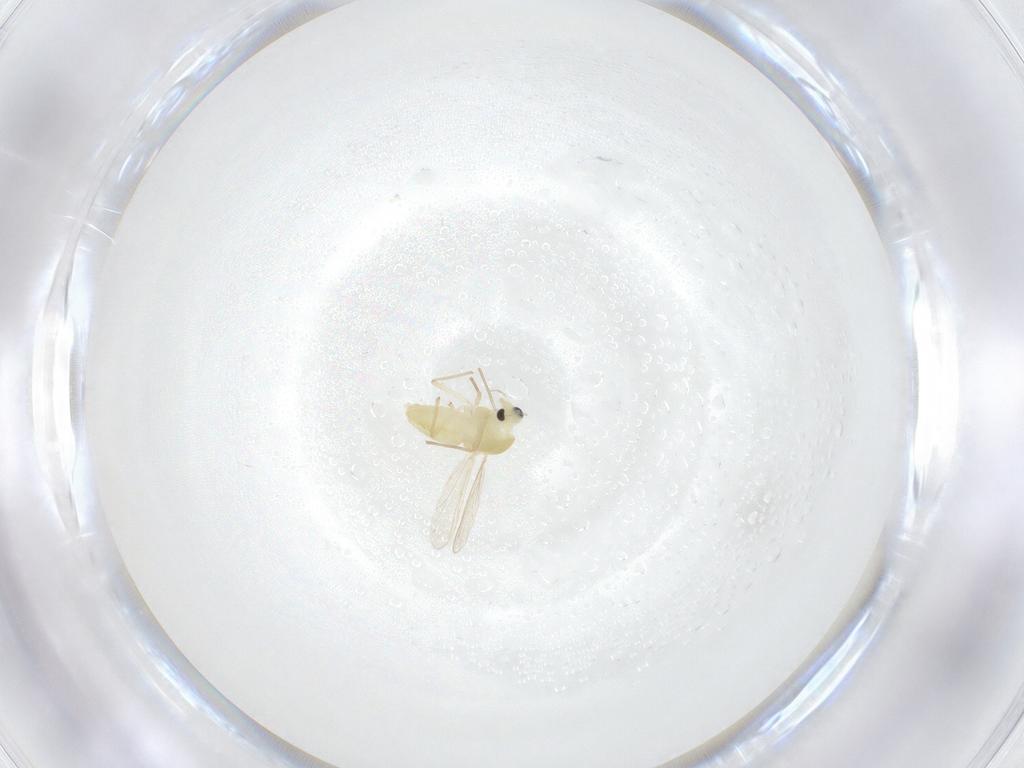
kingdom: Animalia
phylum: Arthropoda
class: Insecta
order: Diptera
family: Chironomidae
